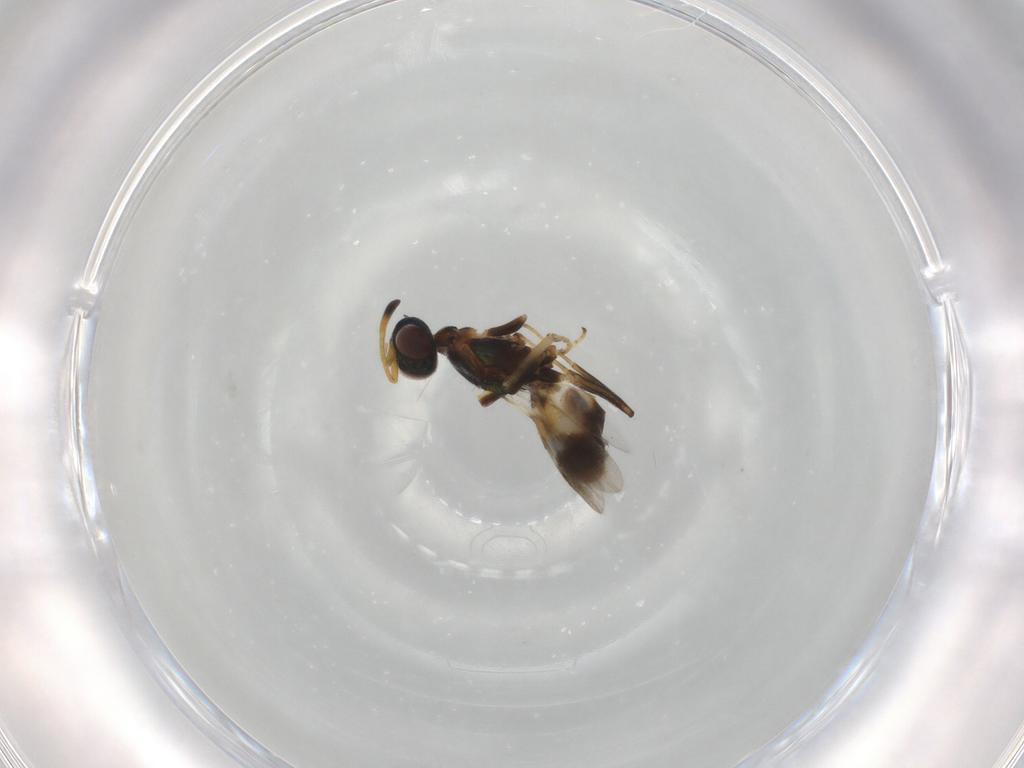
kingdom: Animalia
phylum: Arthropoda
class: Insecta
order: Hymenoptera
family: Eupelmidae
